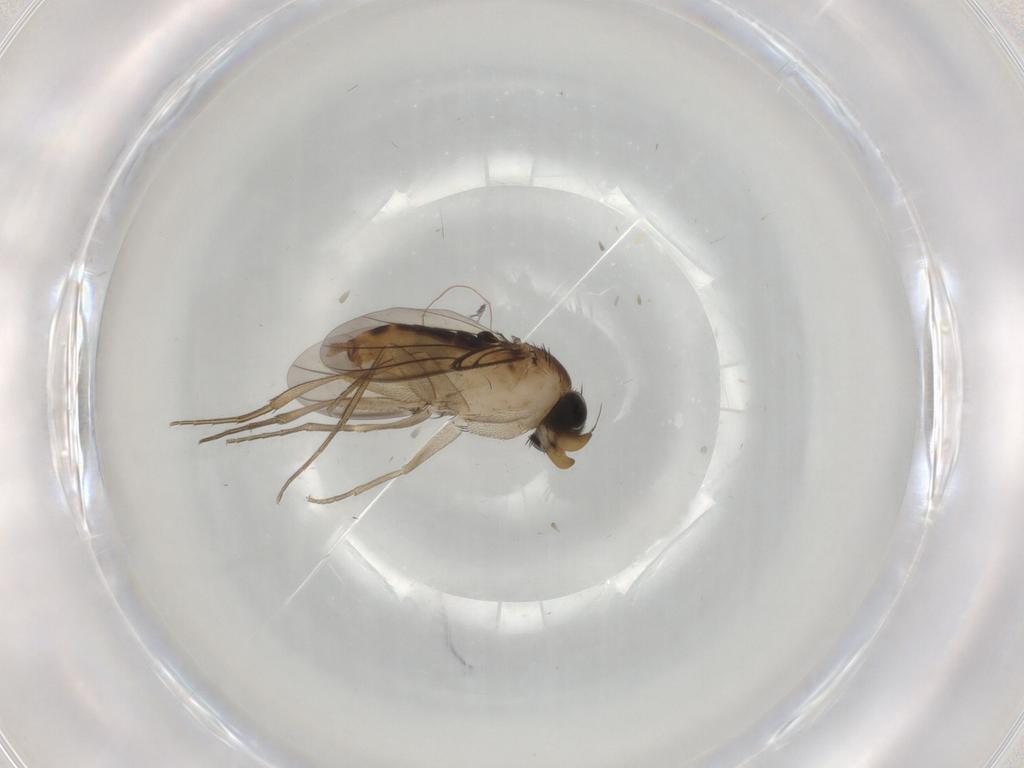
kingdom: Animalia
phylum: Arthropoda
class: Insecta
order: Diptera
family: Phoridae
